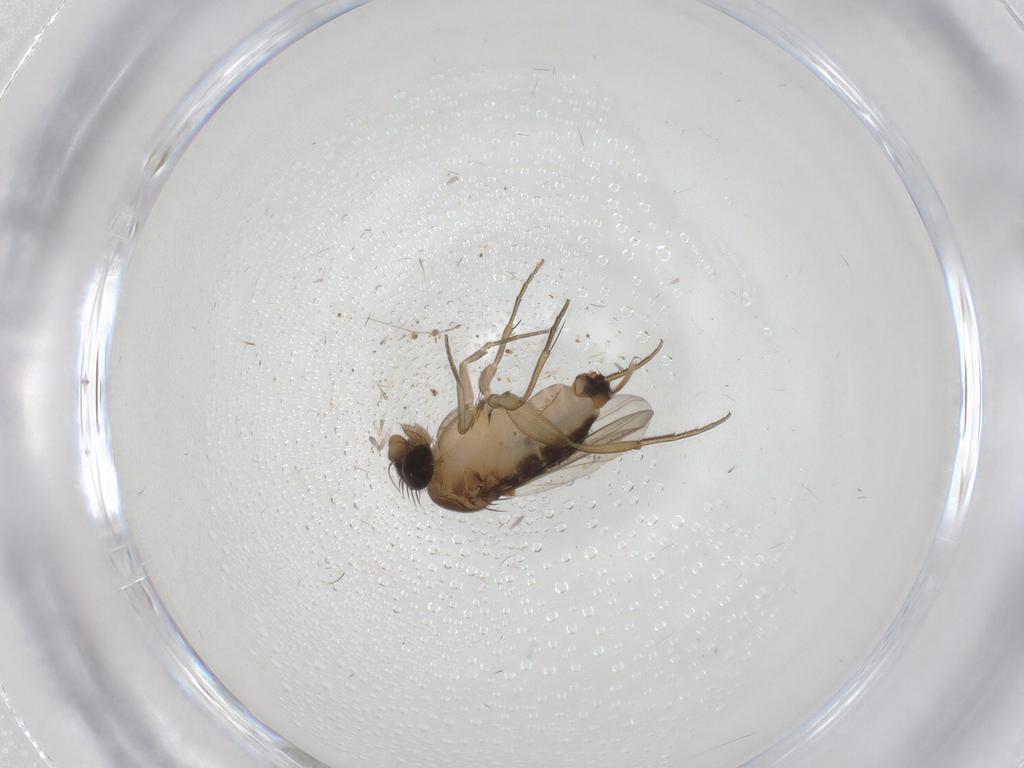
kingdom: Animalia
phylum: Arthropoda
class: Insecta
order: Diptera
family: Phoridae
